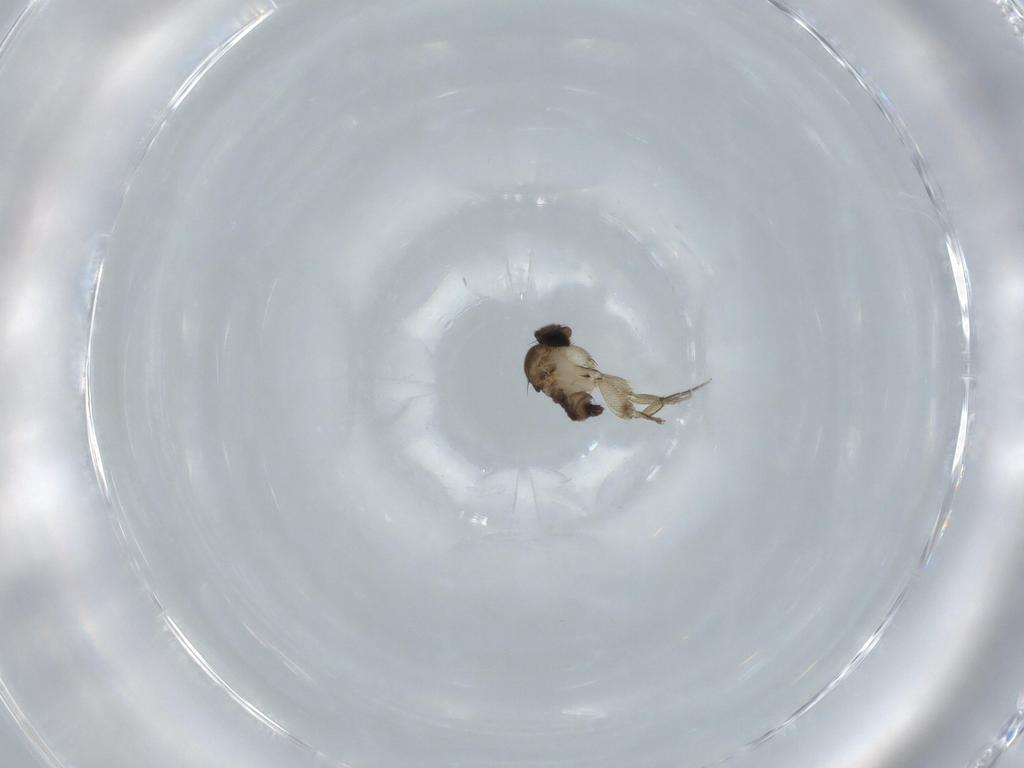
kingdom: Animalia
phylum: Arthropoda
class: Insecta
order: Diptera
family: Phoridae
